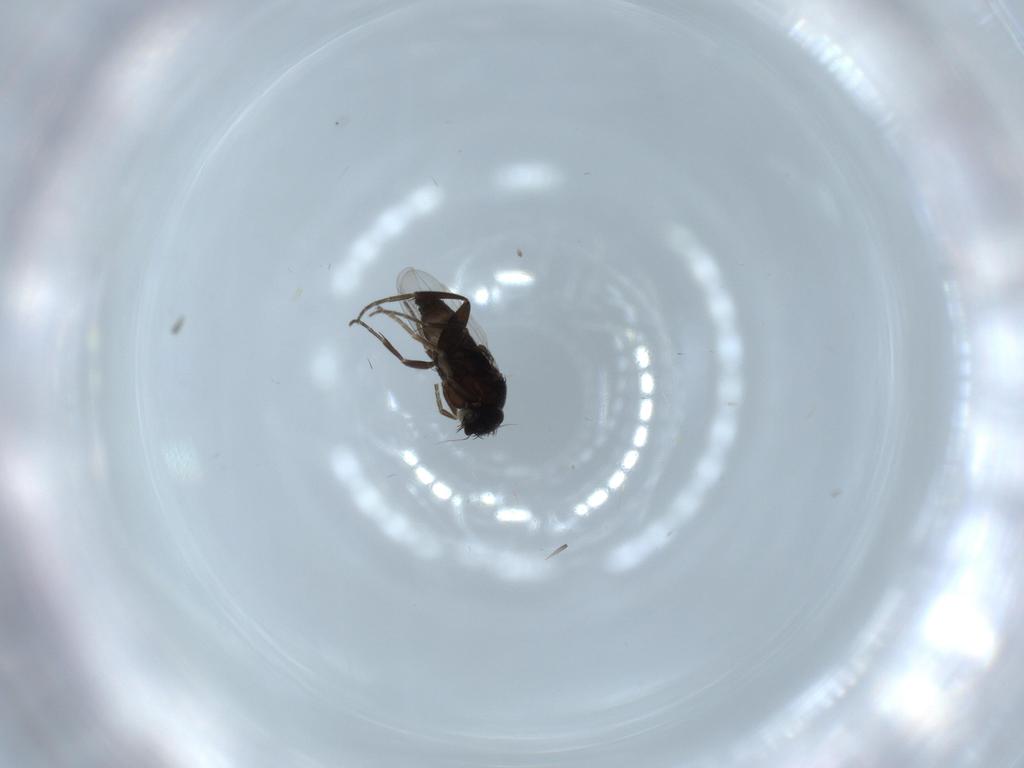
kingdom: Animalia
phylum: Arthropoda
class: Insecta
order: Diptera
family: Phoridae
